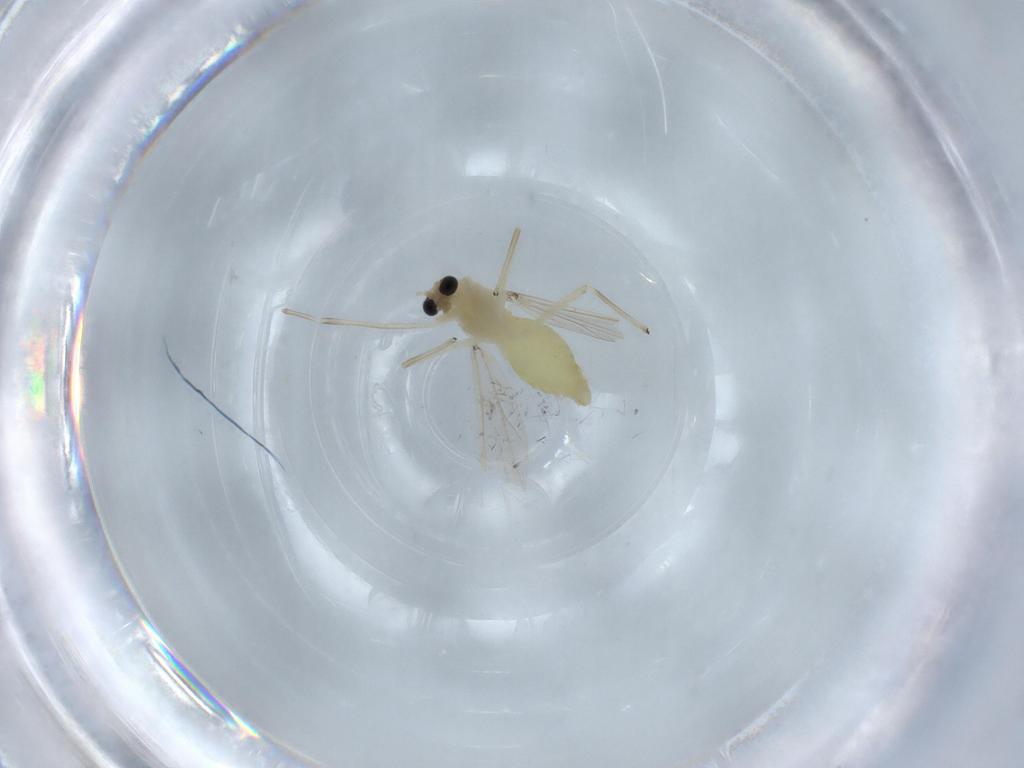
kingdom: Animalia
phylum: Arthropoda
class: Insecta
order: Diptera
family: Chironomidae
